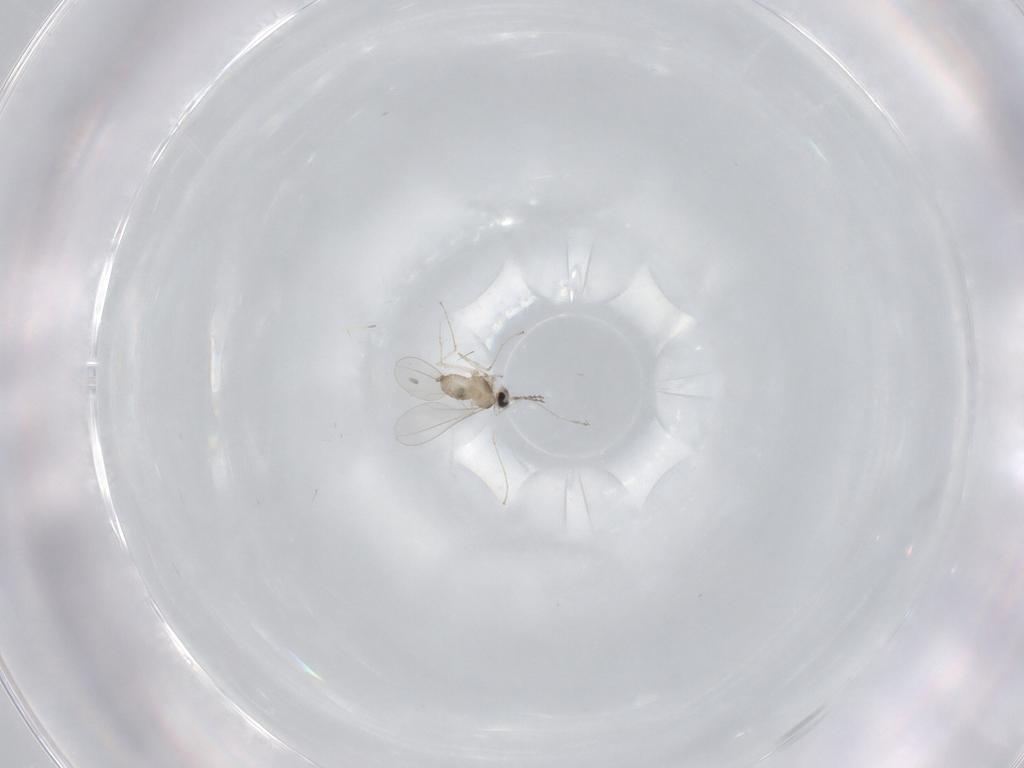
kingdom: Animalia
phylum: Arthropoda
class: Insecta
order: Diptera
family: Cecidomyiidae
